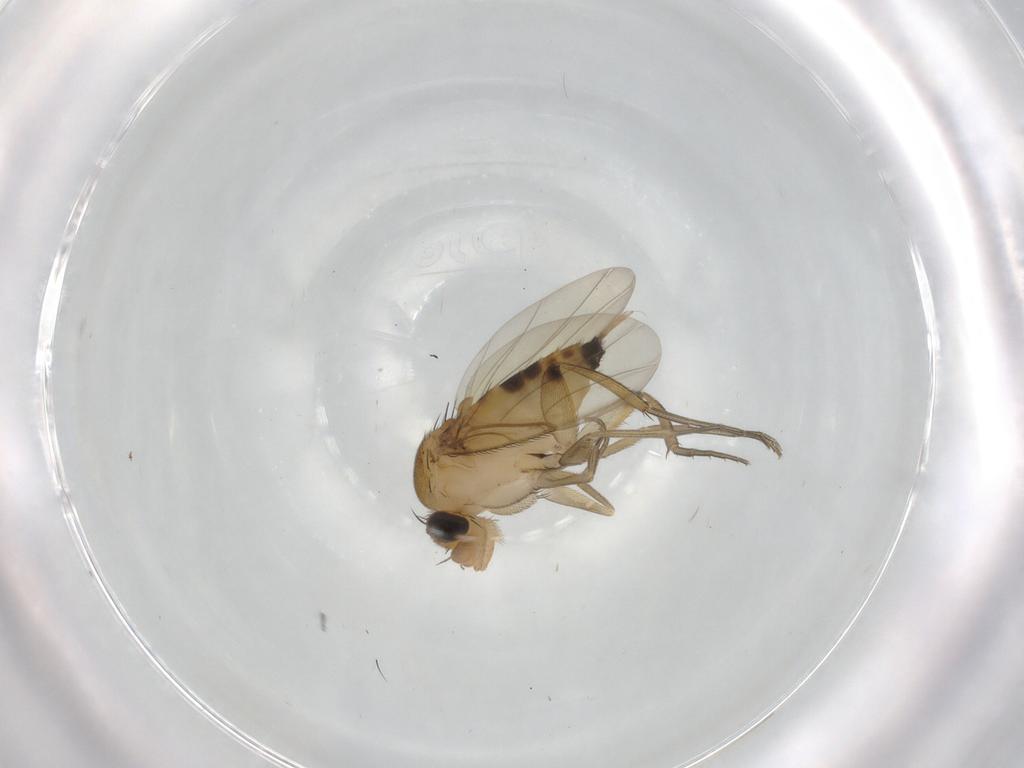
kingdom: Animalia
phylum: Arthropoda
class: Insecta
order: Diptera
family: Phoridae
